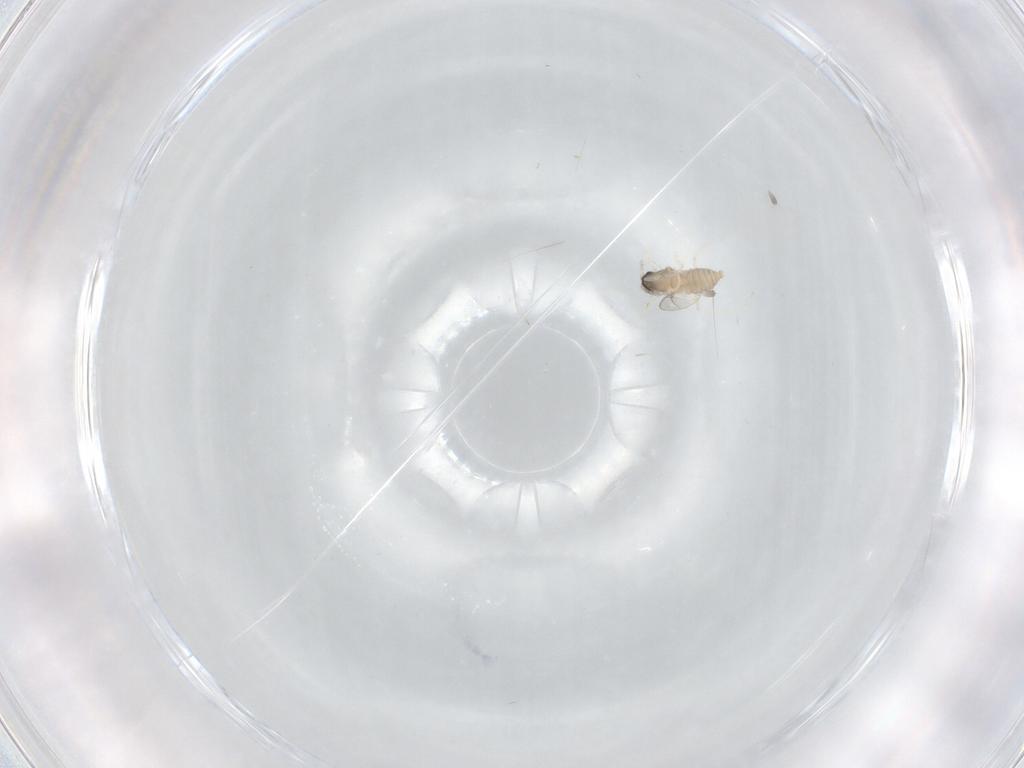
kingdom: Animalia
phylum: Arthropoda
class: Insecta
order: Diptera
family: Cecidomyiidae
